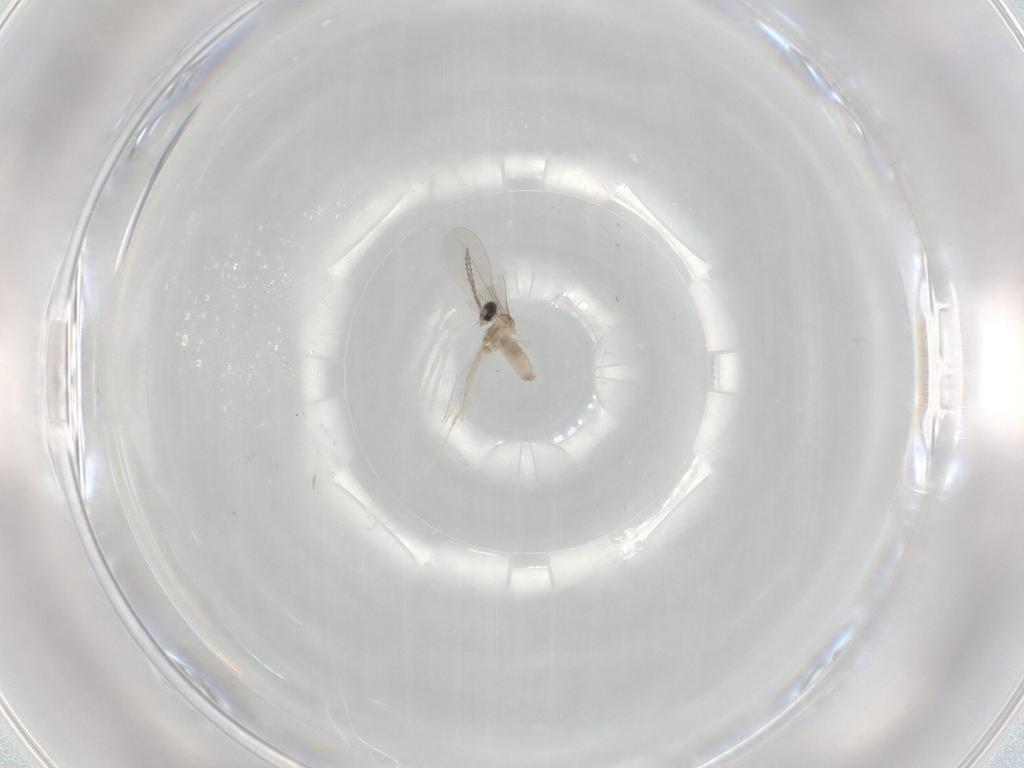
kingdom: Animalia
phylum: Arthropoda
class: Insecta
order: Diptera
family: Cecidomyiidae
